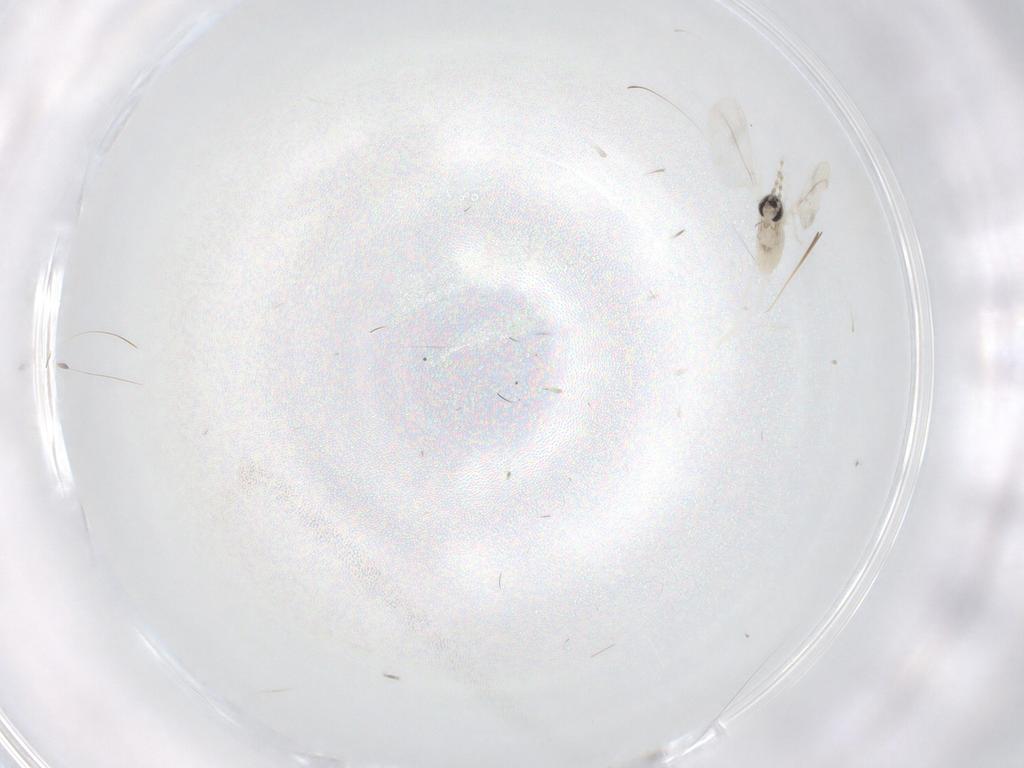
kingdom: Animalia
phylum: Arthropoda
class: Insecta
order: Diptera
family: Cecidomyiidae
